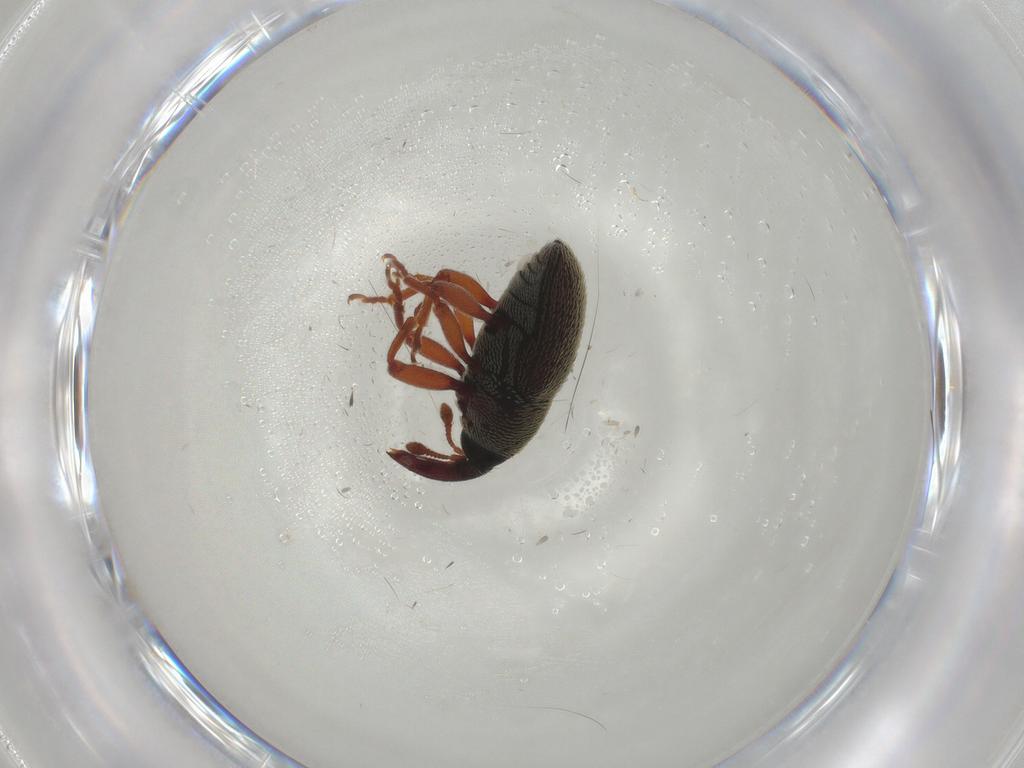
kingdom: Animalia
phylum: Arthropoda
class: Insecta
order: Coleoptera
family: Curculionidae
